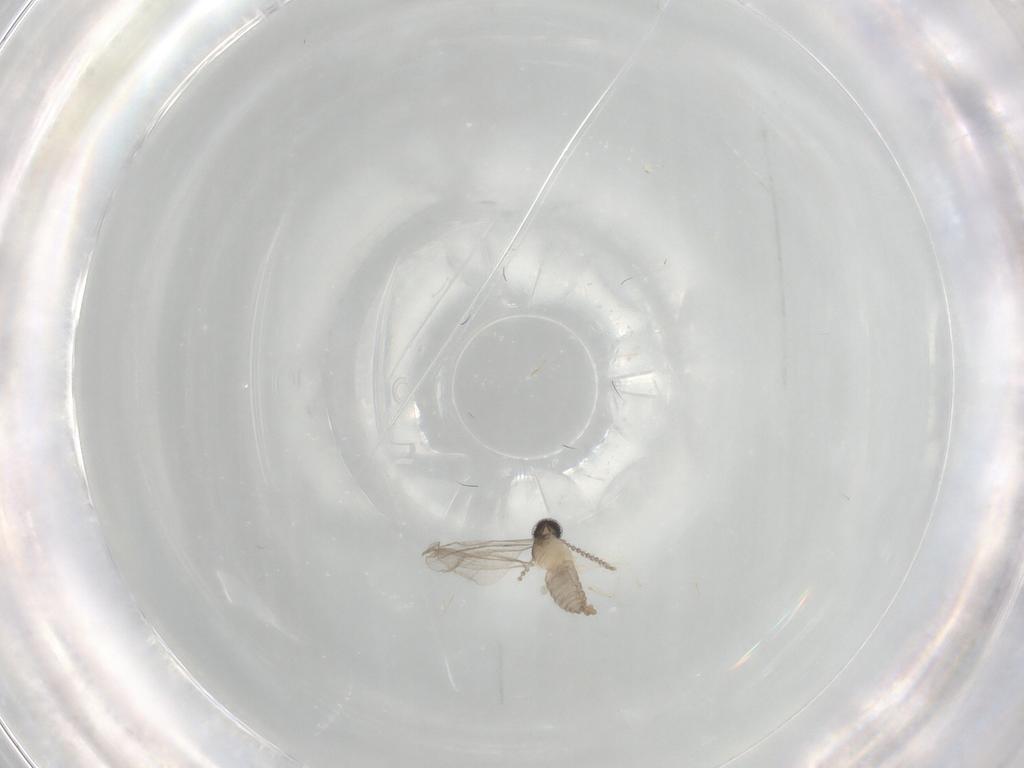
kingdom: Animalia
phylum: Arthropoda
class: Insecta
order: Diptera
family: Cecidomyiidae
